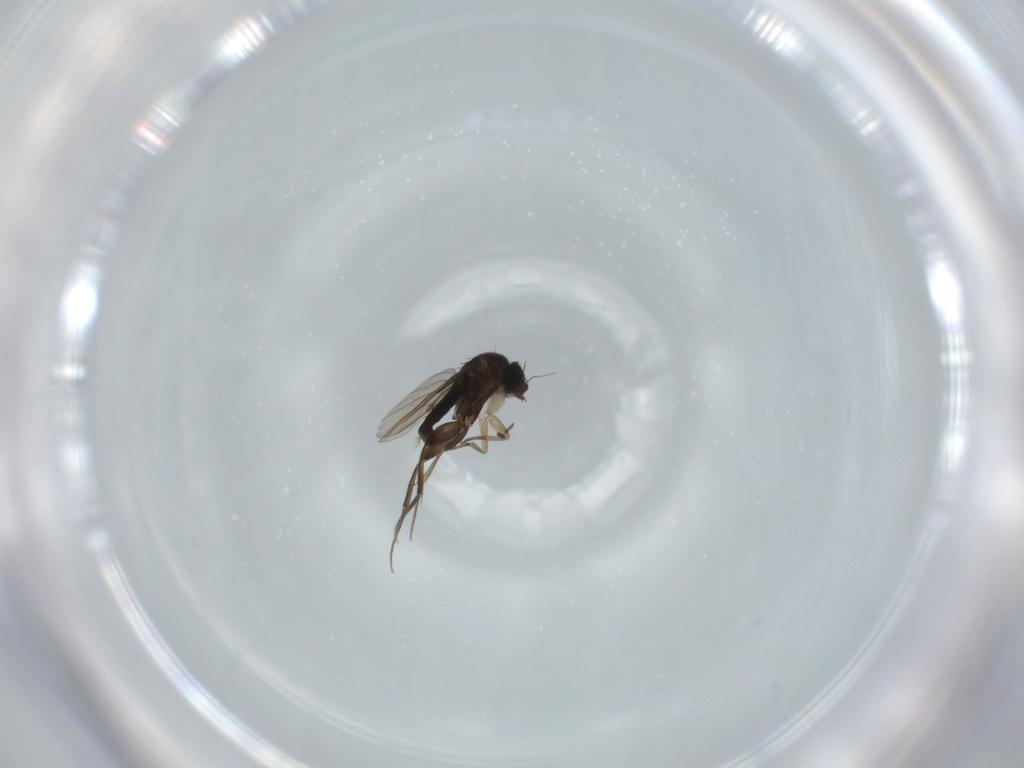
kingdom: Animalia
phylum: Arthropoda
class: Insecta
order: Diptera
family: Phoridae
